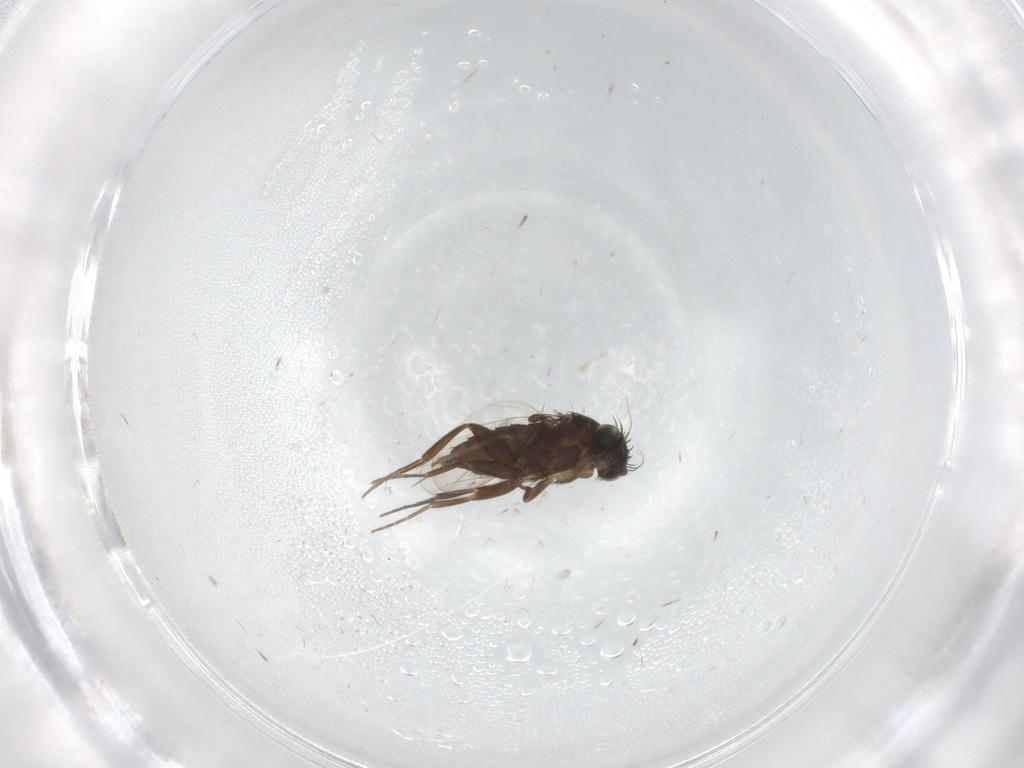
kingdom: Animalia
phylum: Arthropoda
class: Insecta
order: Diptera
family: Phoridae
